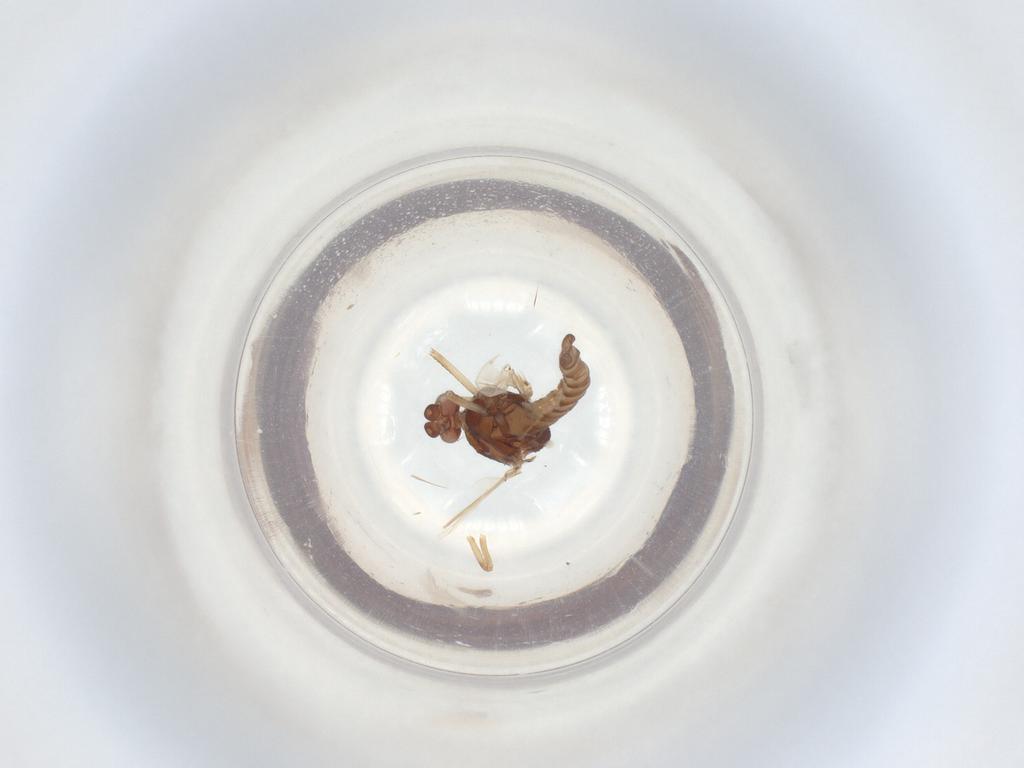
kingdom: Animalia
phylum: Arthropoda
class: Insecta
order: Diptera
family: Ceratopogonidae
